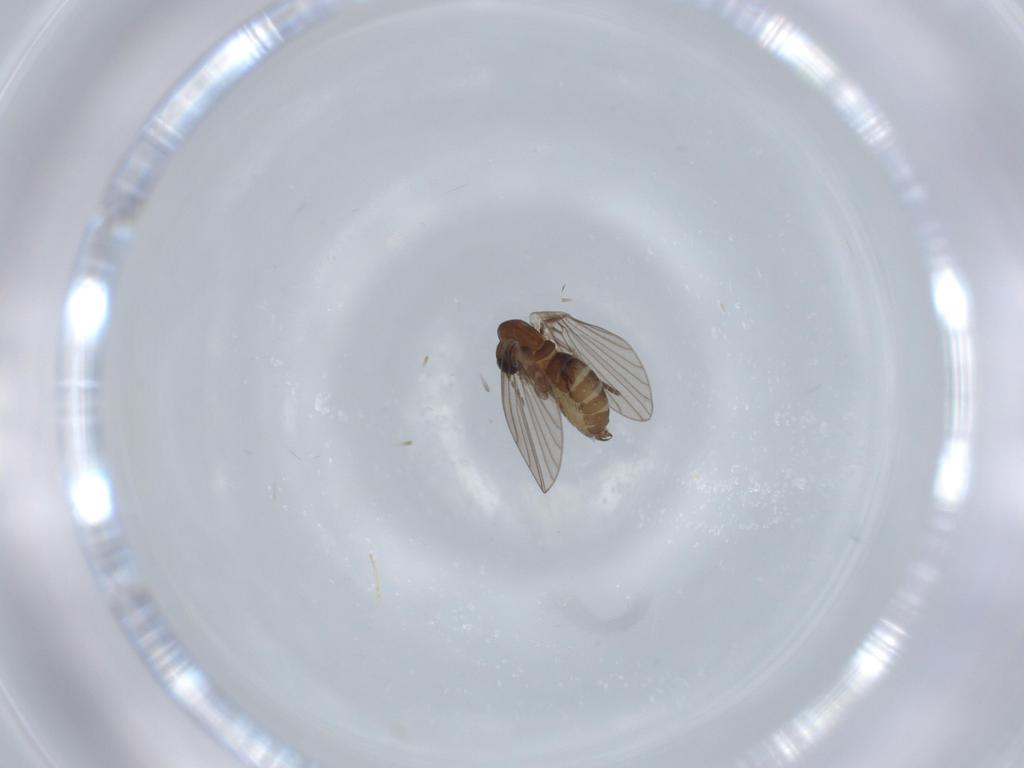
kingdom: Animalia
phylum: Arthropoda
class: Insecta
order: Diptera
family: Psychodidae
